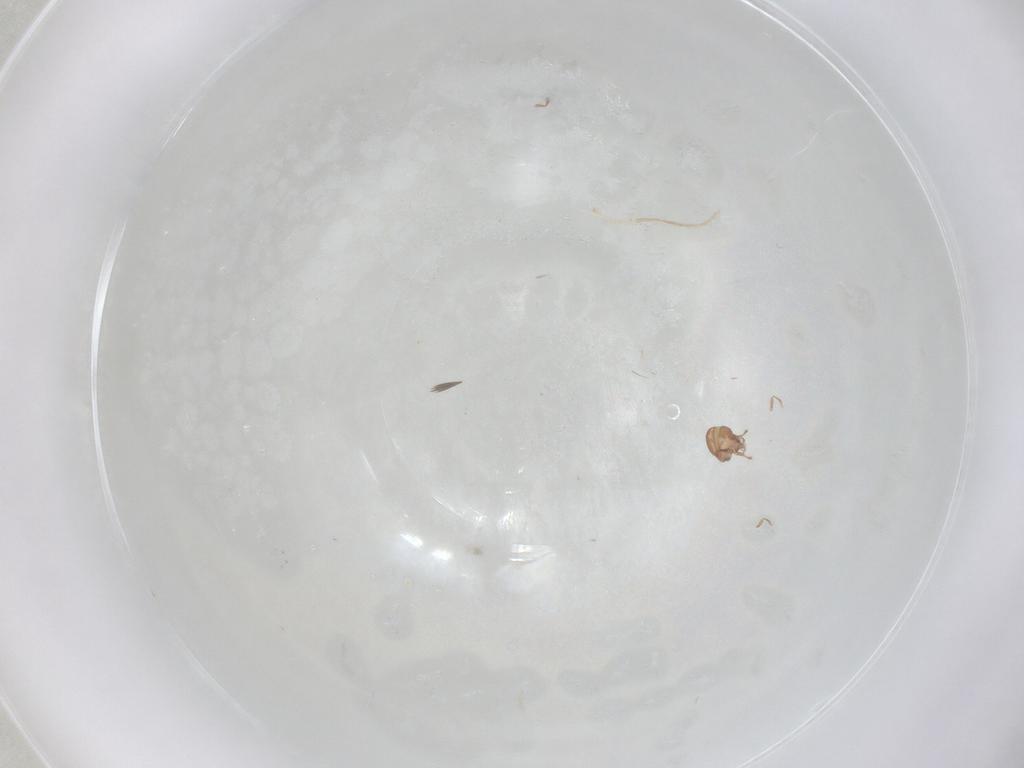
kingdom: Animalia
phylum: Arthropoda
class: Arachnida
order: Sarcoptiformes
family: Scheloribatidae
